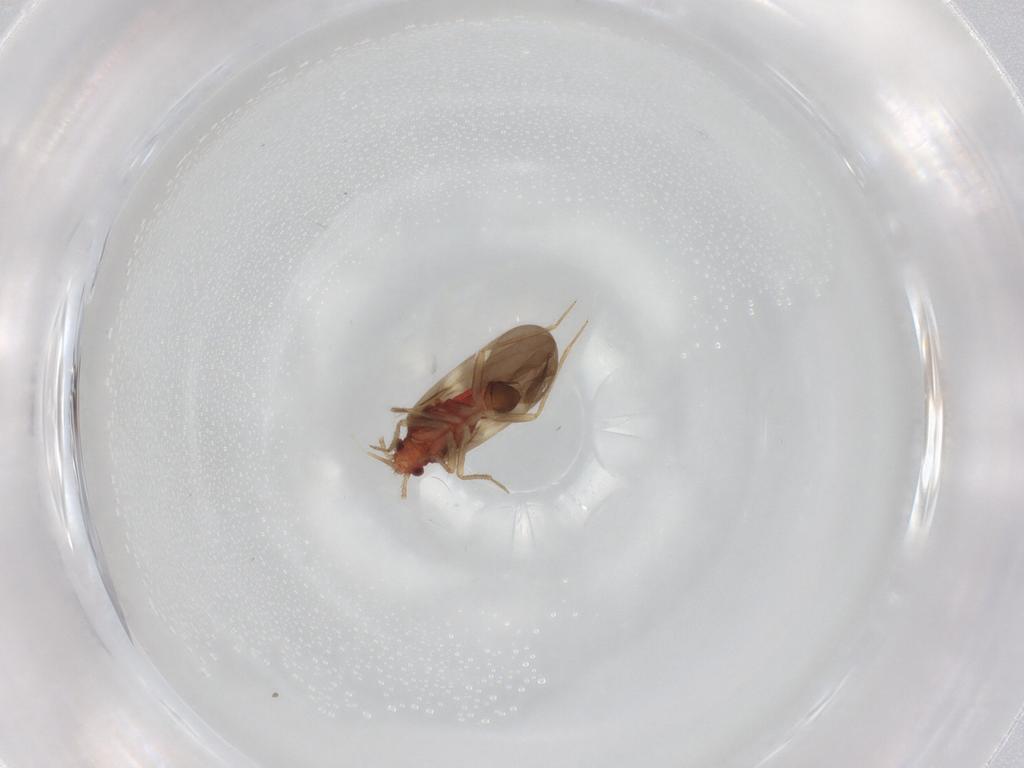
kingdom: Animalia
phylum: Arthropoda
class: Insecta
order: Hemiptera
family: Ceratocombidae
